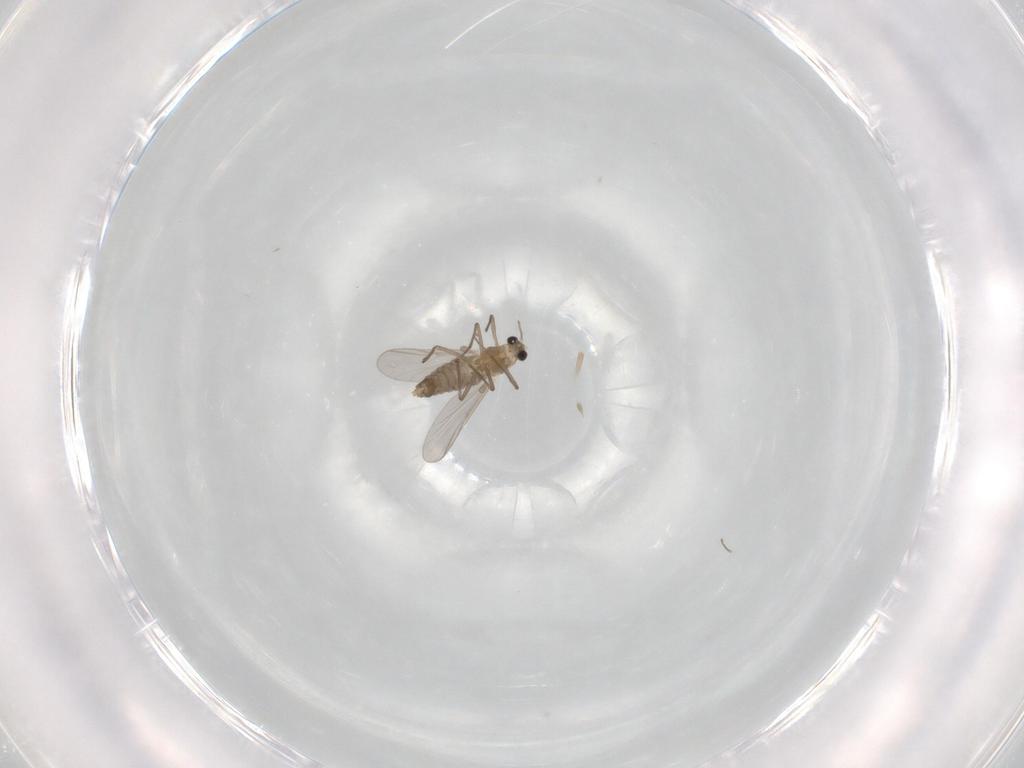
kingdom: Animalia
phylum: Arthropoda
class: Insecta
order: Diptera
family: Chironomidae
